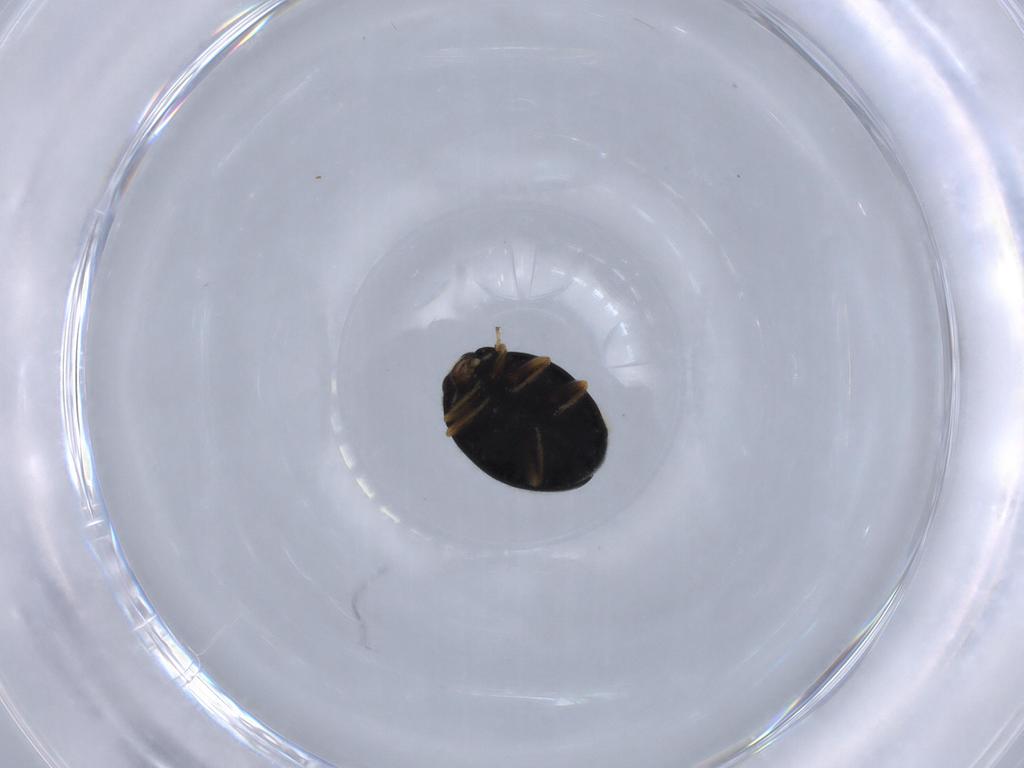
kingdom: Animalia
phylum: Arthropoda
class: Insecta
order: Coleoptera
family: Coccinellidae
